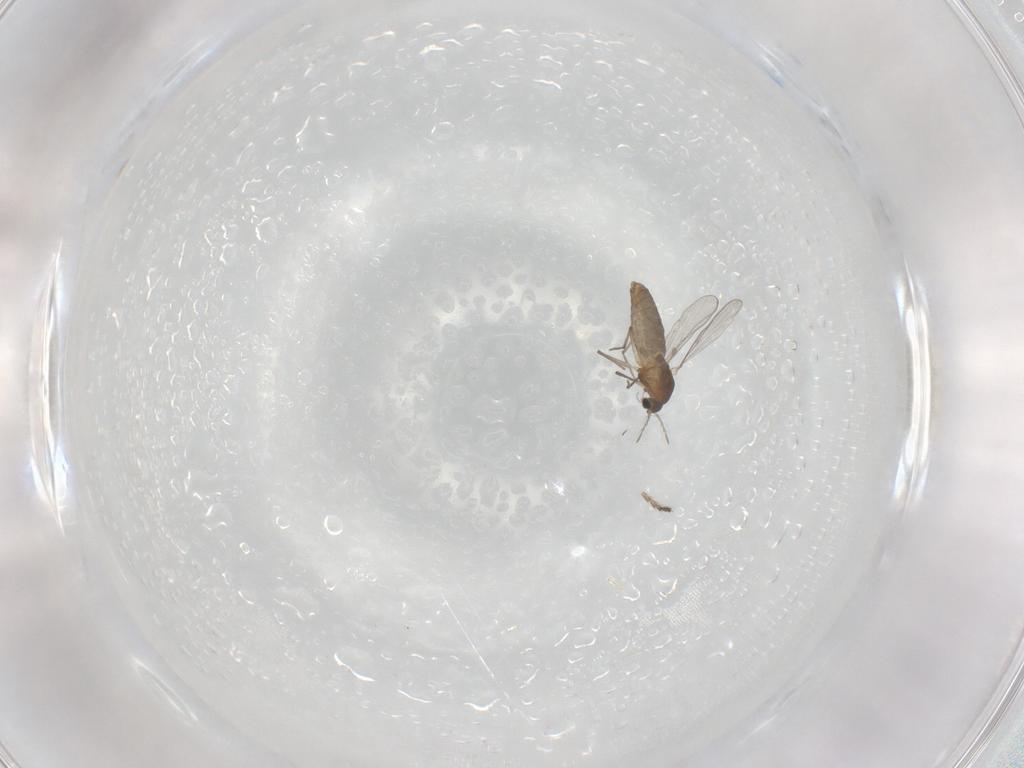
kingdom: Animalia
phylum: Arthropoda
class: Insecta
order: Diptera
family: Chironomidae
